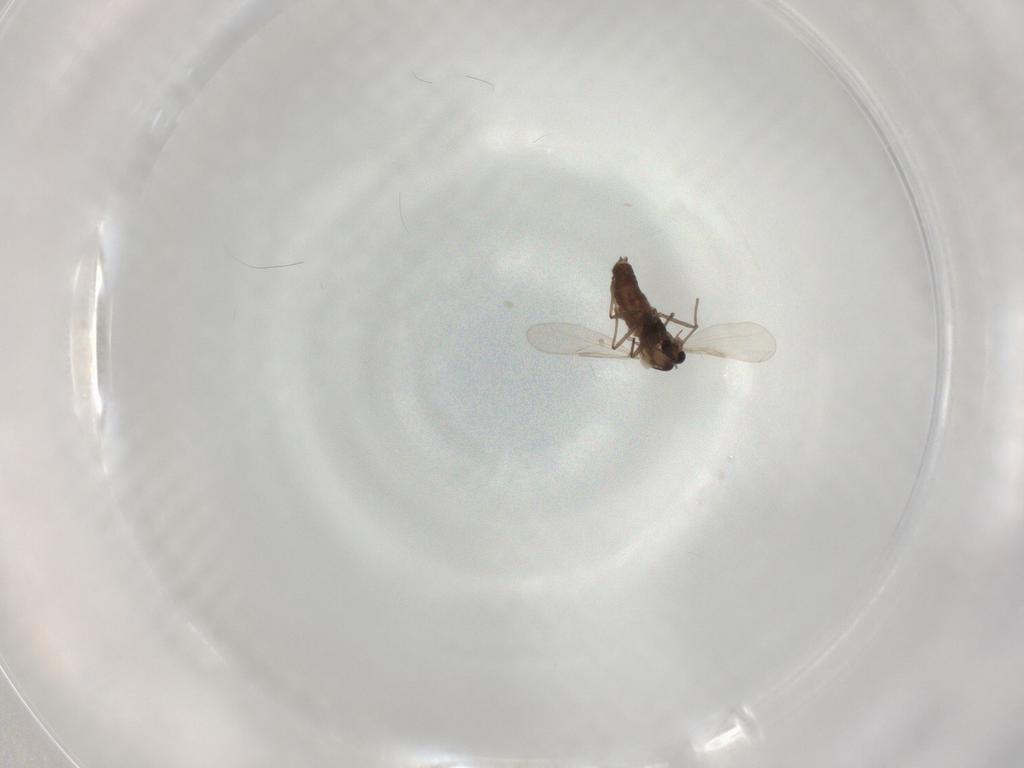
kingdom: Animalia
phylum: Arthropoda
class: Insecta
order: Diptera
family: Chironomidae
